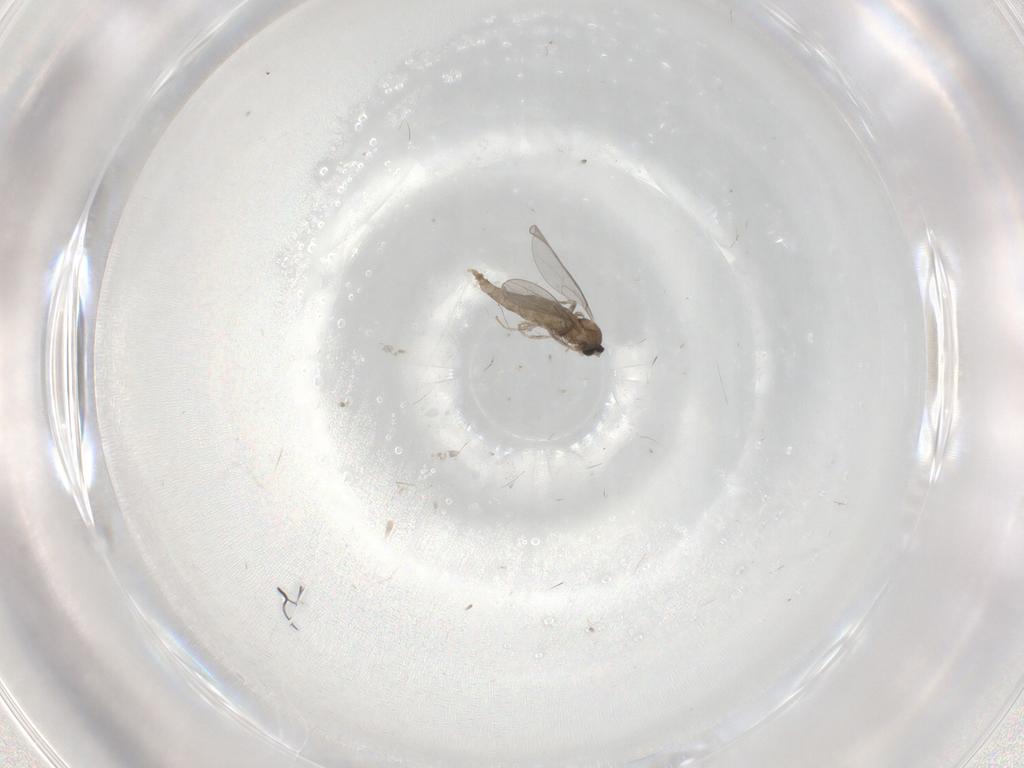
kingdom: Animalia
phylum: Arthropoda
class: Insecta
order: Diptera
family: Cecidomyiidae
